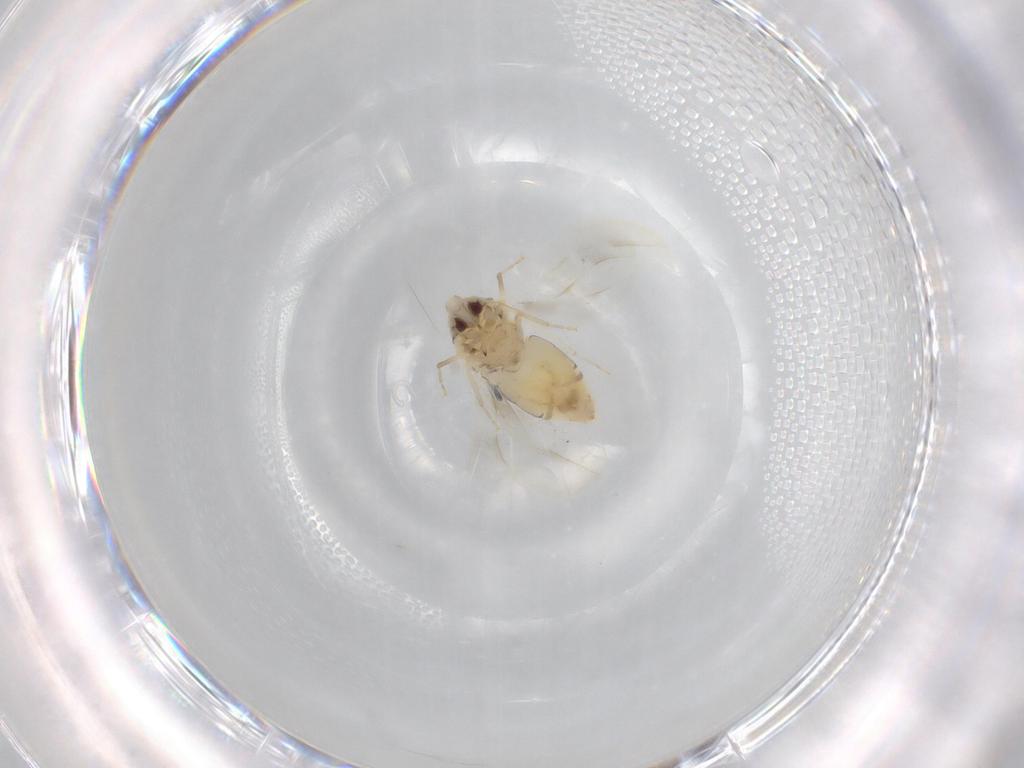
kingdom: Animalia
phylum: Arthropoda
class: Insecta
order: Hemiptera
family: Aleyrodidae
